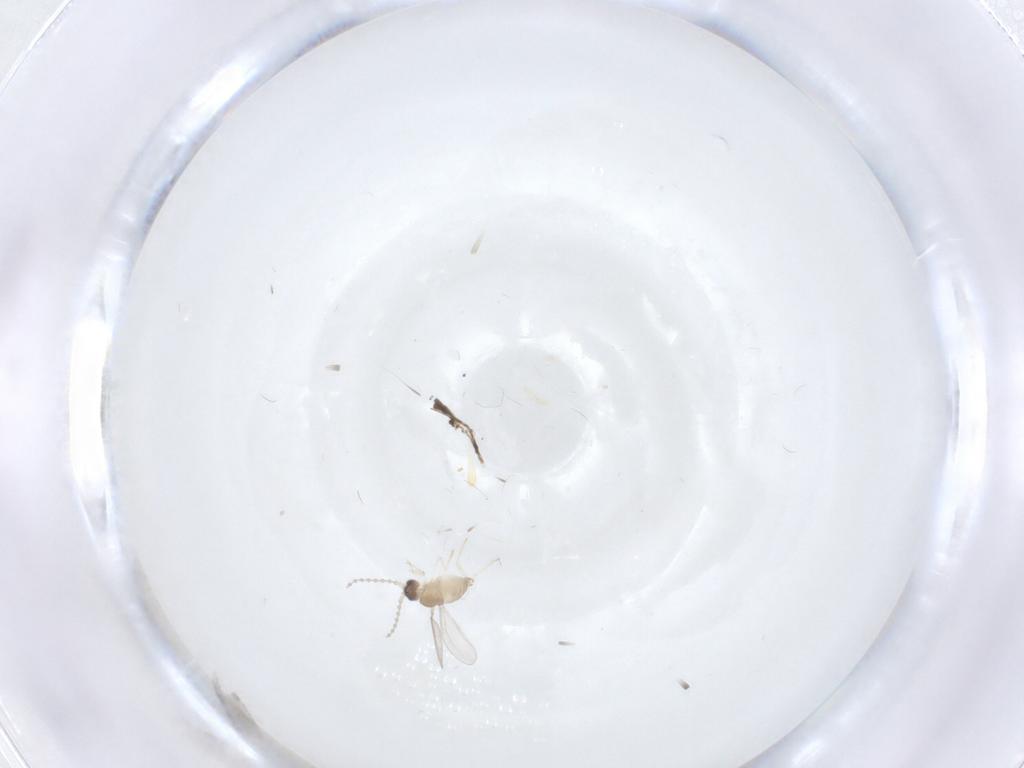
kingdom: Animalia
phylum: Arthropoda
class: Insecta
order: Diptera
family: Cecidomyiidae
